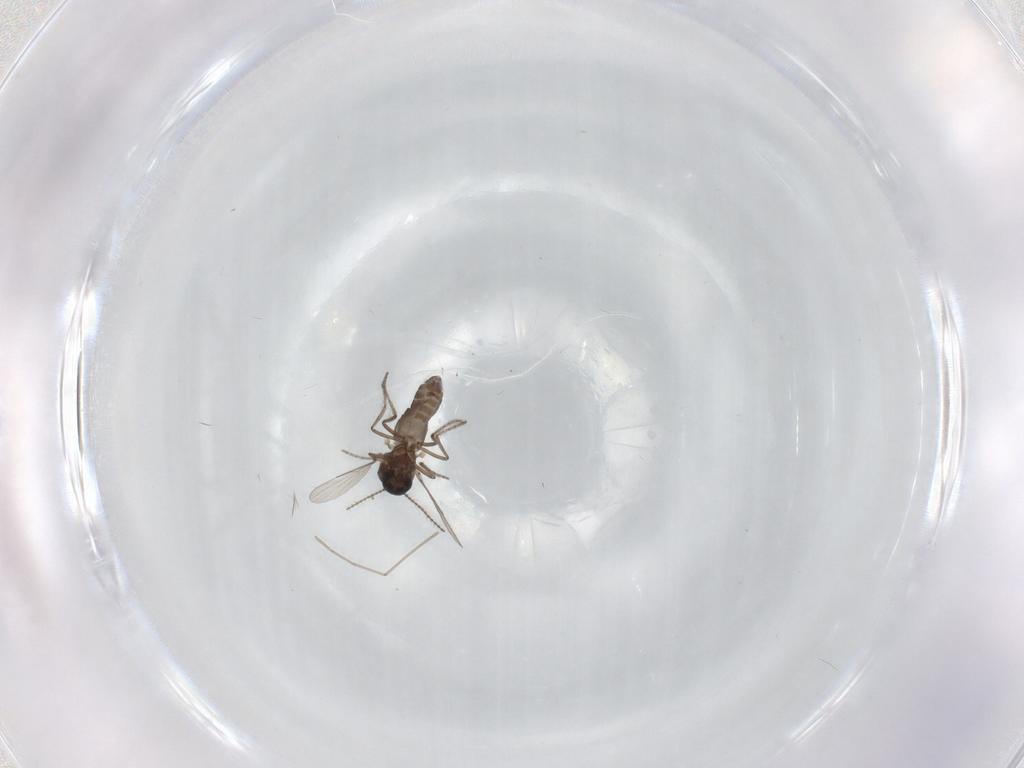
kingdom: Animalia
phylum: Arthropoda
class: Insecta
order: Diptera
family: Ceratopogonidae
